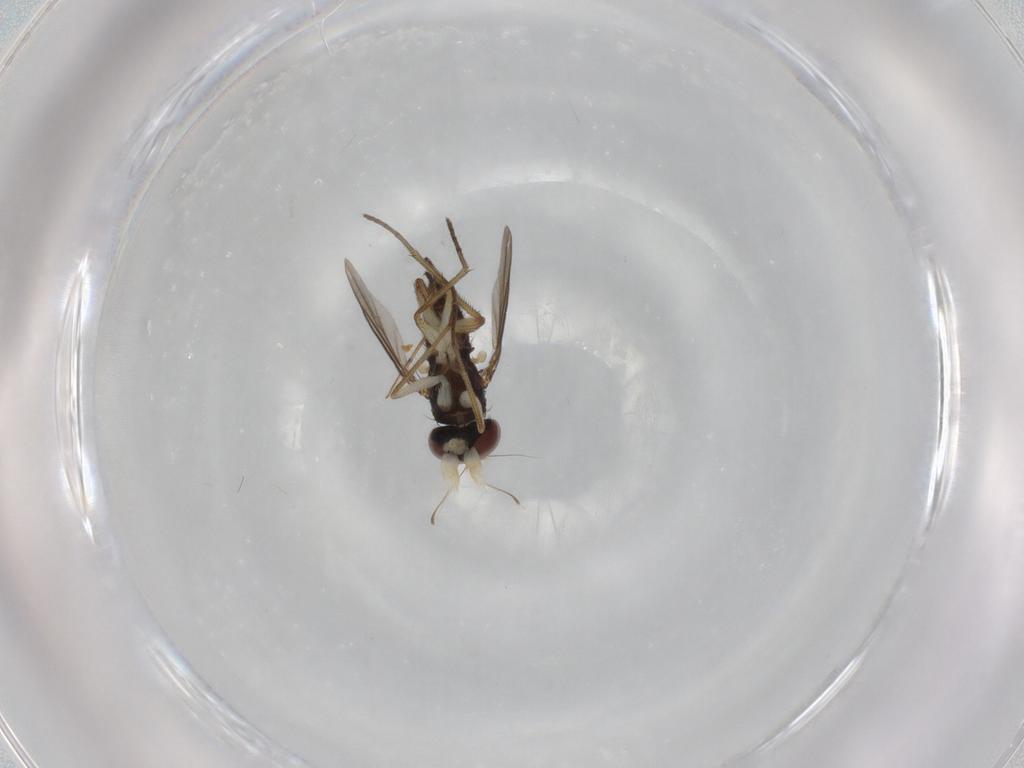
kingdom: Animalia
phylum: Arthropoda
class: Insecta
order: Diptera
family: Dolichopodidae
